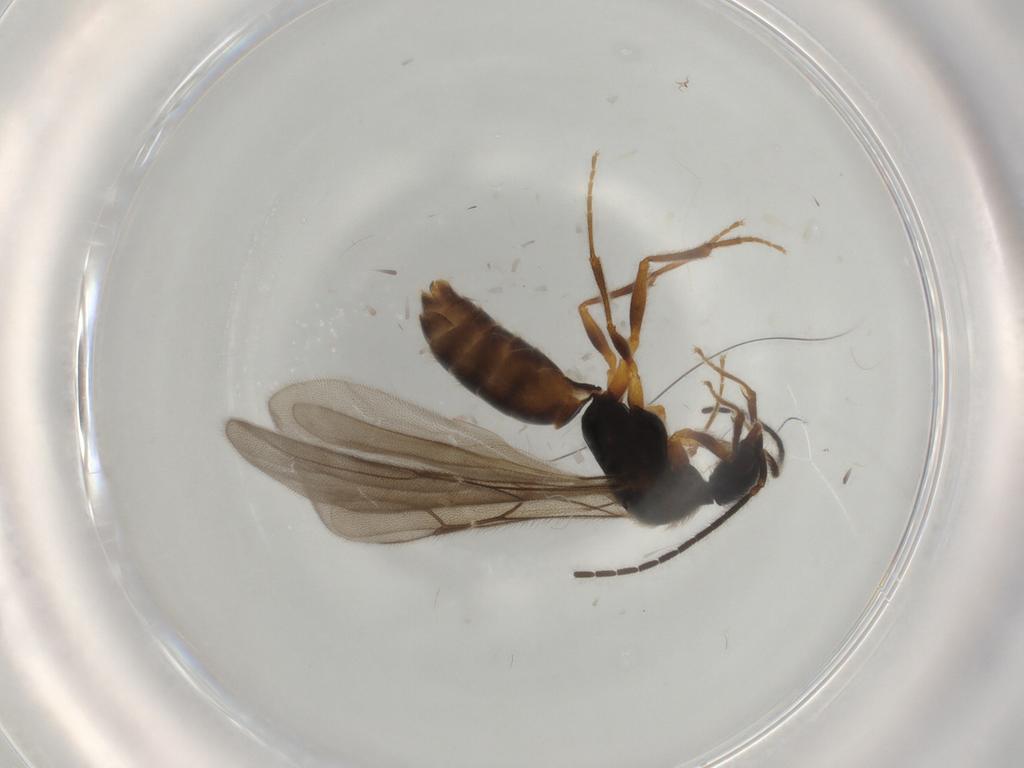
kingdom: Animalia
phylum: Arthropoda
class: Insecta
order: Hymenoptera
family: Bethylidae
